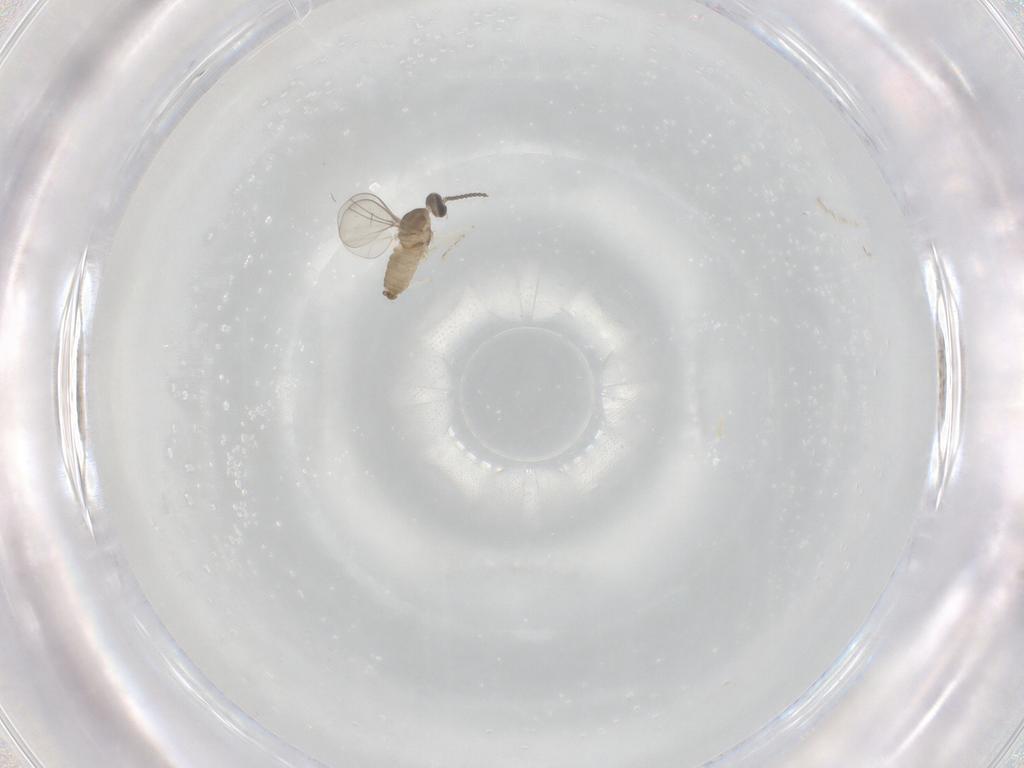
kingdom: Animalia
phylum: Arthropoda
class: Insecta
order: Diptera
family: Cecidomyiidae
